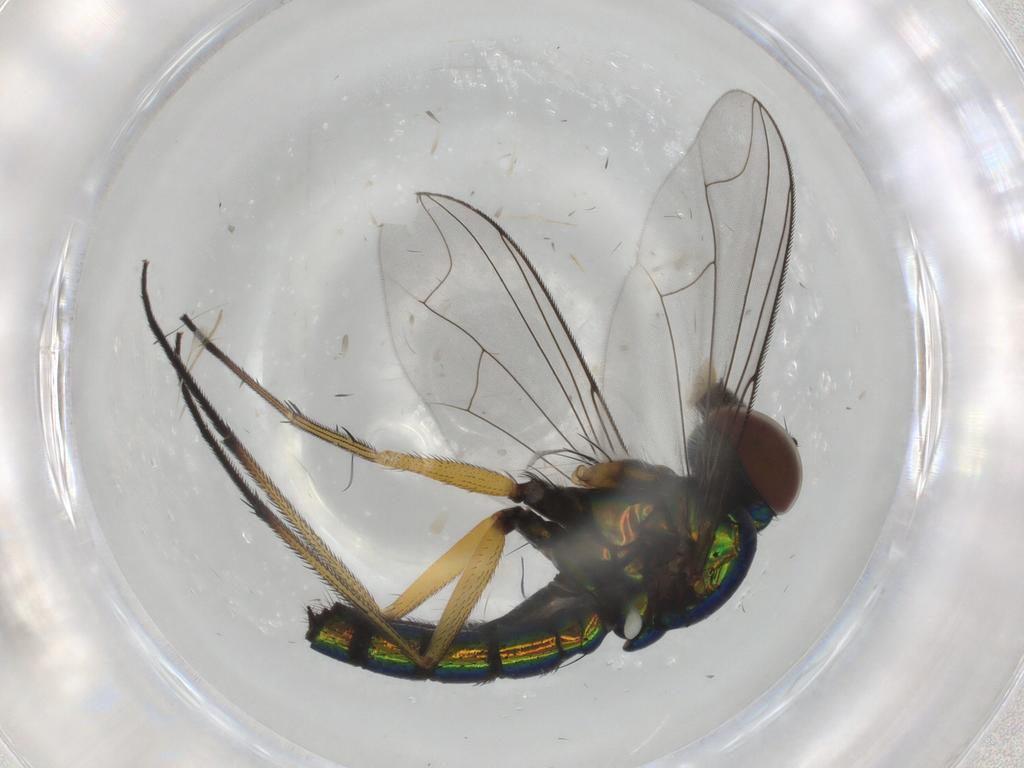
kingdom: Animalia
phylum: Arthropoda
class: Insecta
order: Diptera
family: Dolichopodidae
